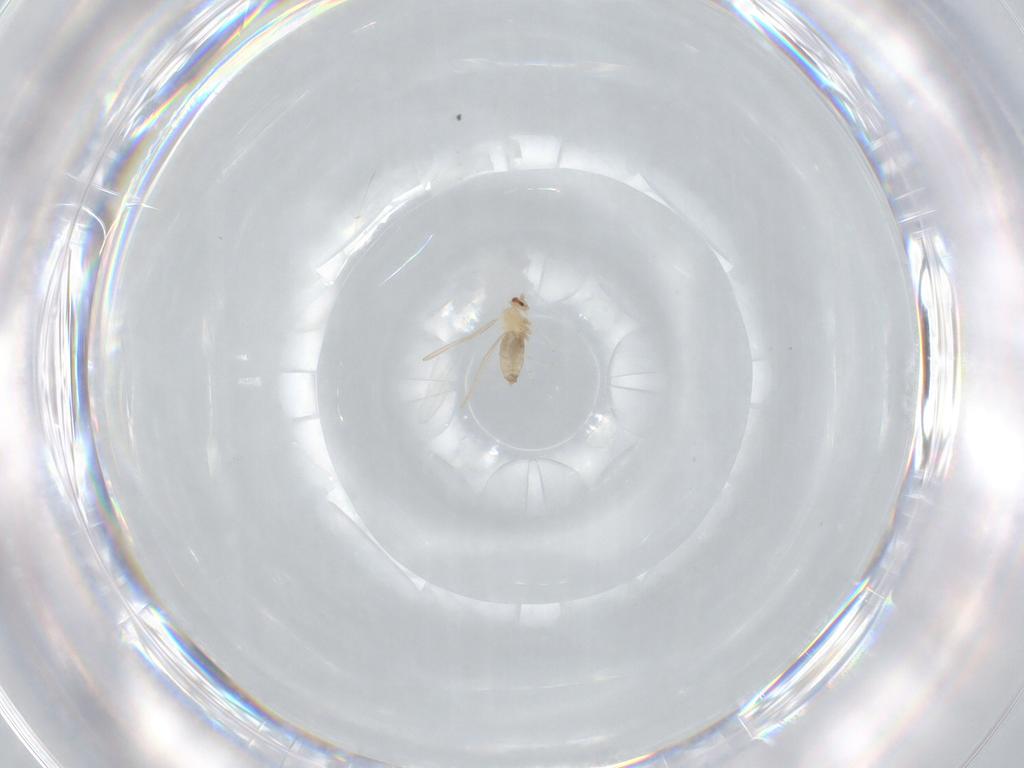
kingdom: Animalia
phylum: Arthropoda
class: Insecta
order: Diptera
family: Cecidomyiidae
